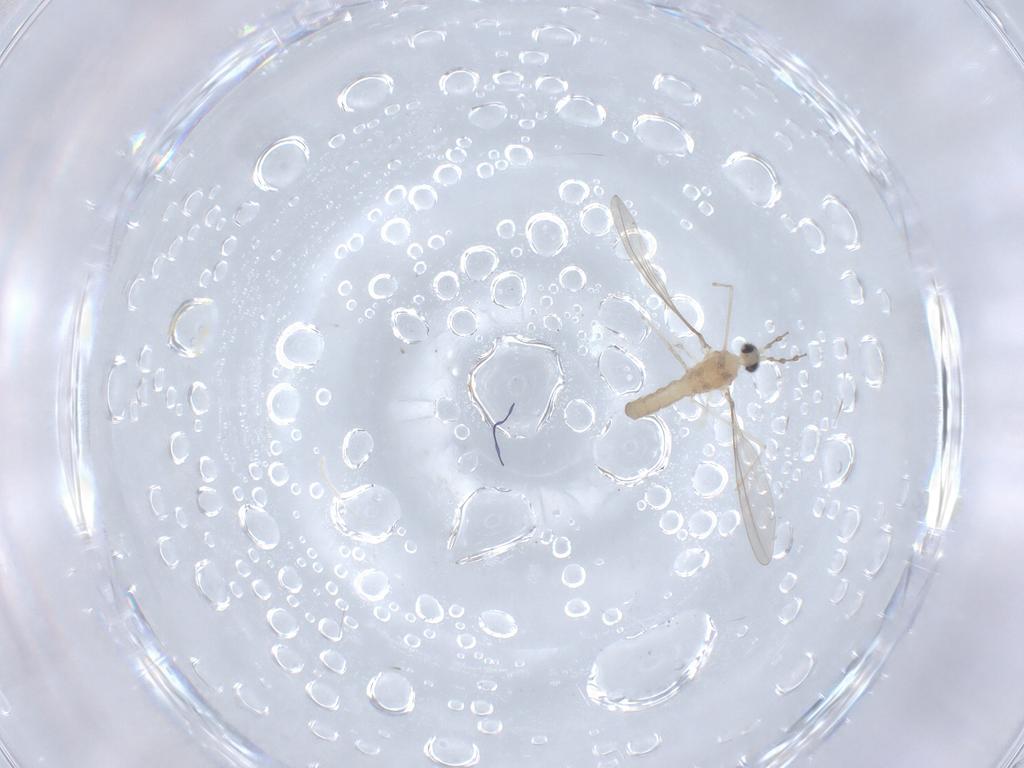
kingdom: Animalia
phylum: Arthropoda
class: Insecta
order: Diptera
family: Cecidomyiidae
